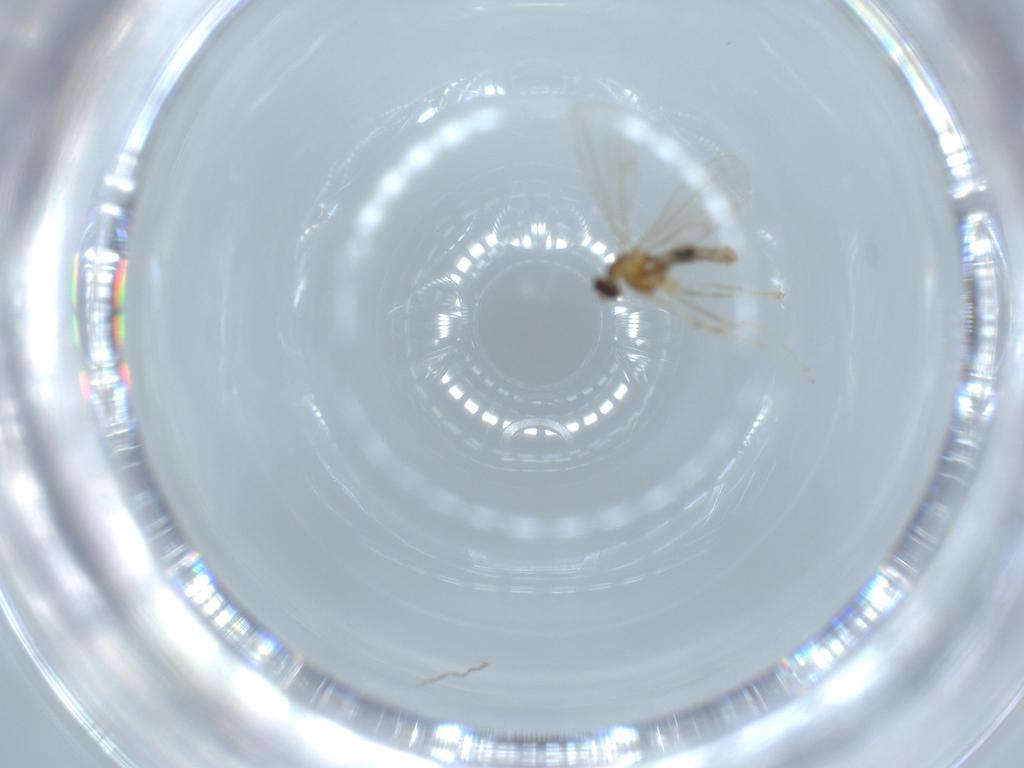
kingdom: Animalia
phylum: Arthropoda
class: Insecta
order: Diptera
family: Cecidomyiidae
